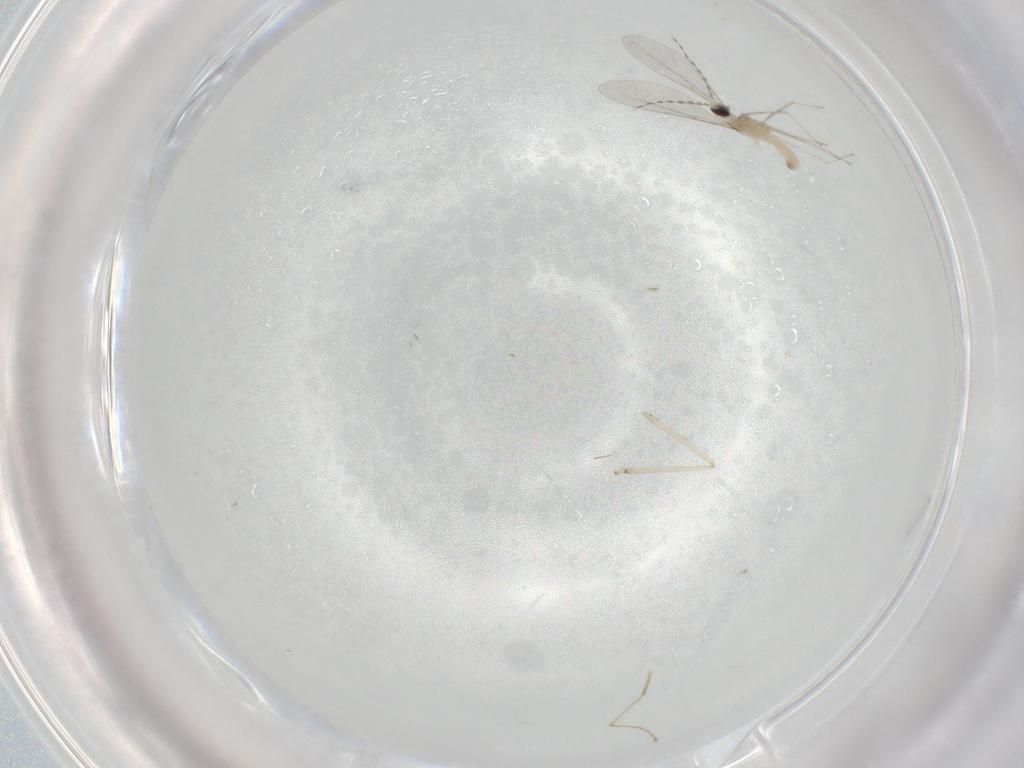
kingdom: Animalia
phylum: Arthropoda
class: Insecta
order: Diptera
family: Cecidomyiidae
